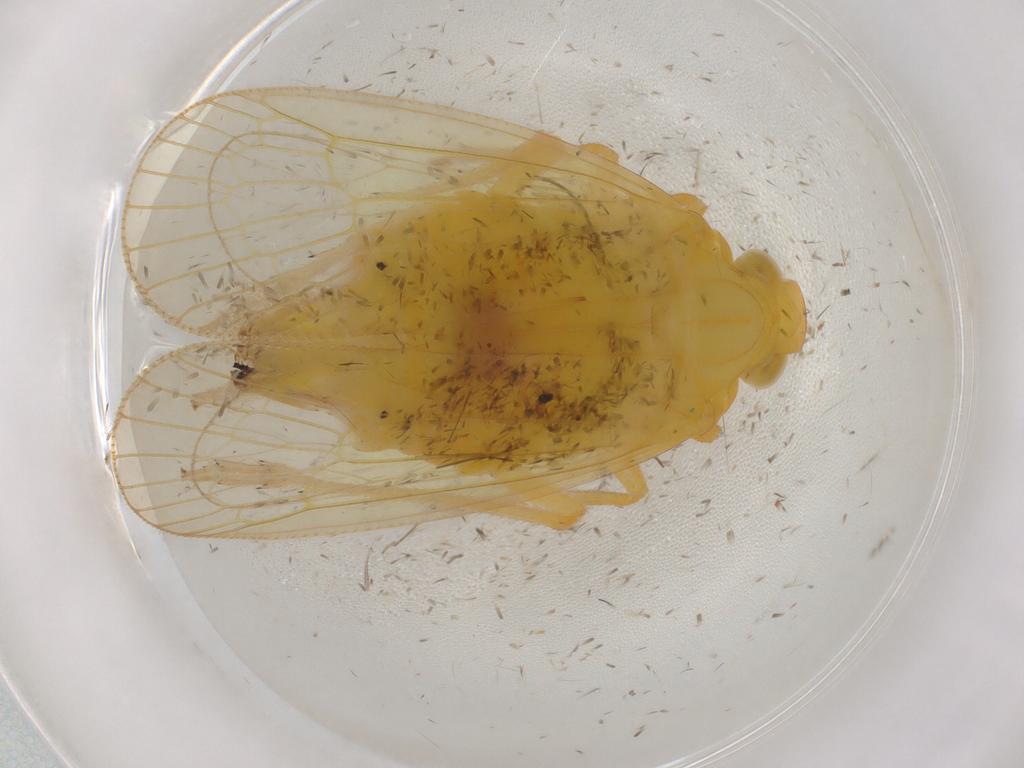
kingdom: Animalia
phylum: Arthropoda
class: Insecta
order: Hemiptera
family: Tropiduchidae
